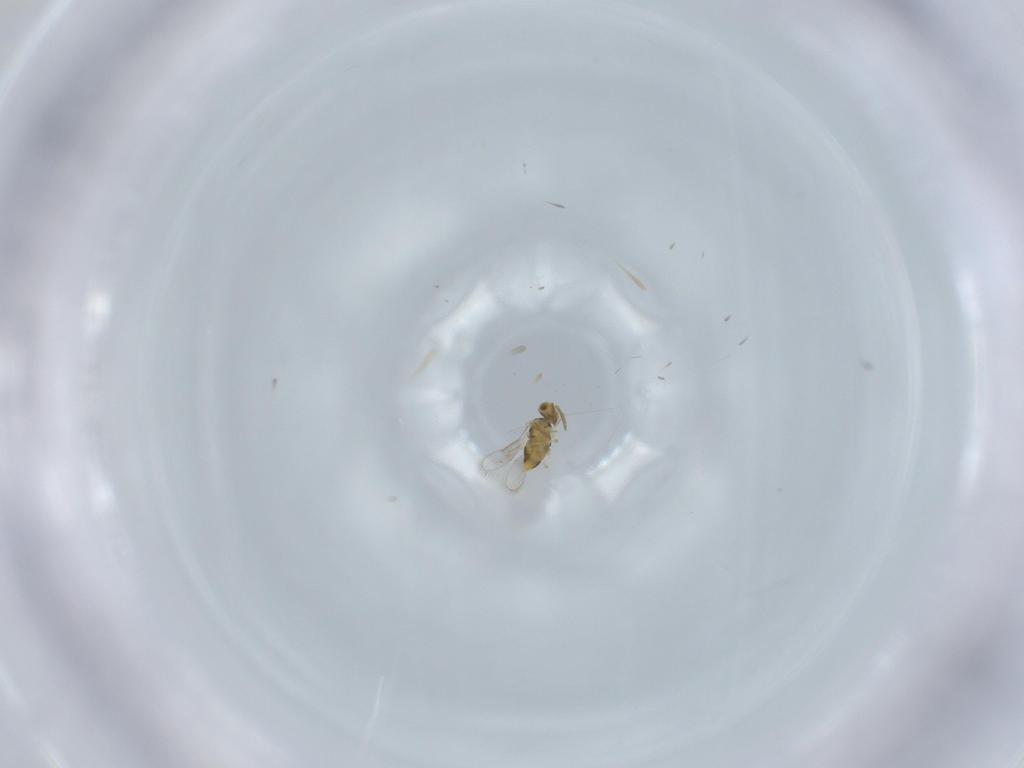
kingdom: Animalia
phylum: Arthropoda
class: Insecta
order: Hymenoptera
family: Aphelinidae
